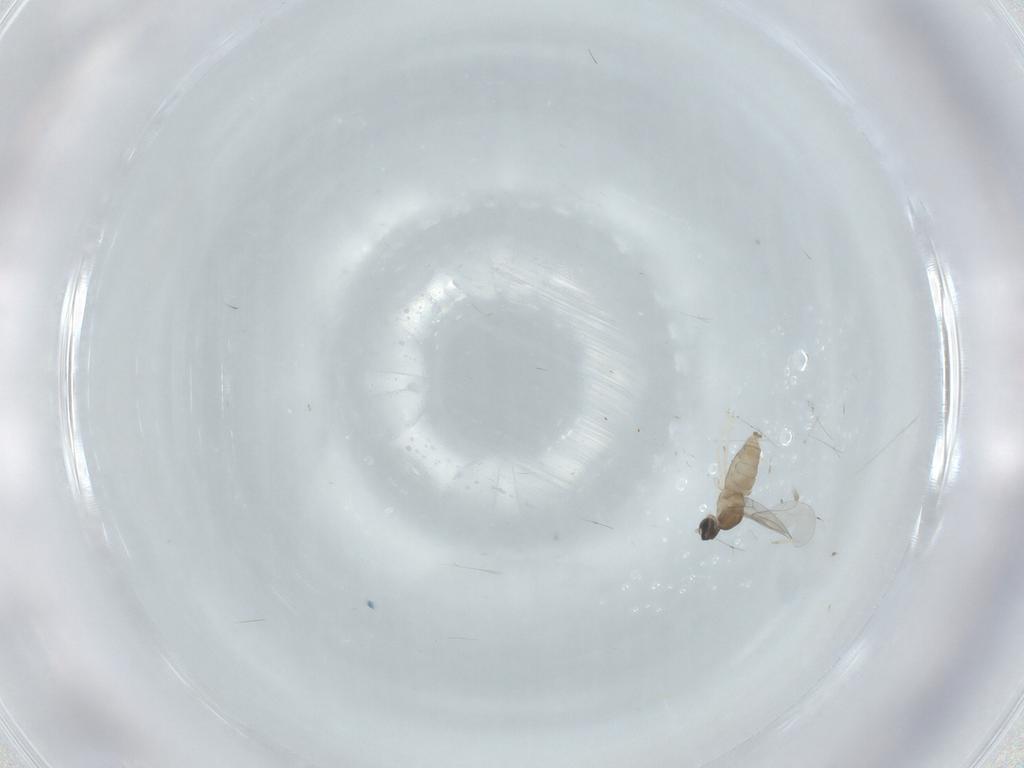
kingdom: Animalia
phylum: Arthropoda
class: Insecta
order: Diptera
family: Cecidomyiidae
